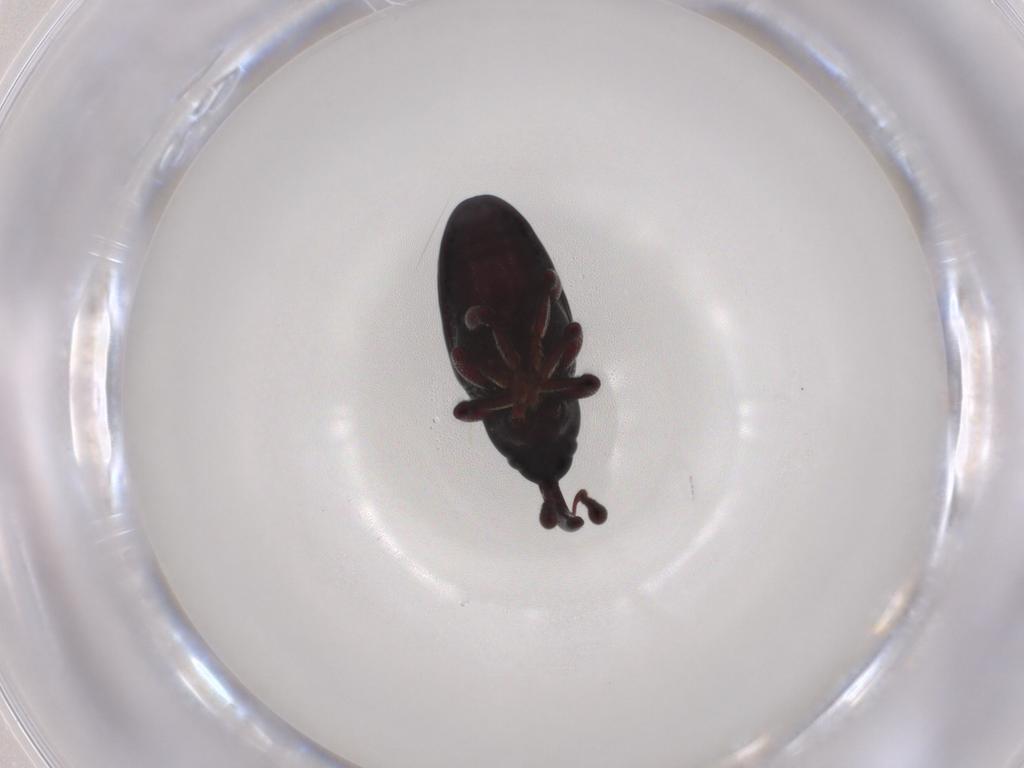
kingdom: Animalia
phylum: Arthropoda
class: Insecta
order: Coleoptera
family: Curculionidae
